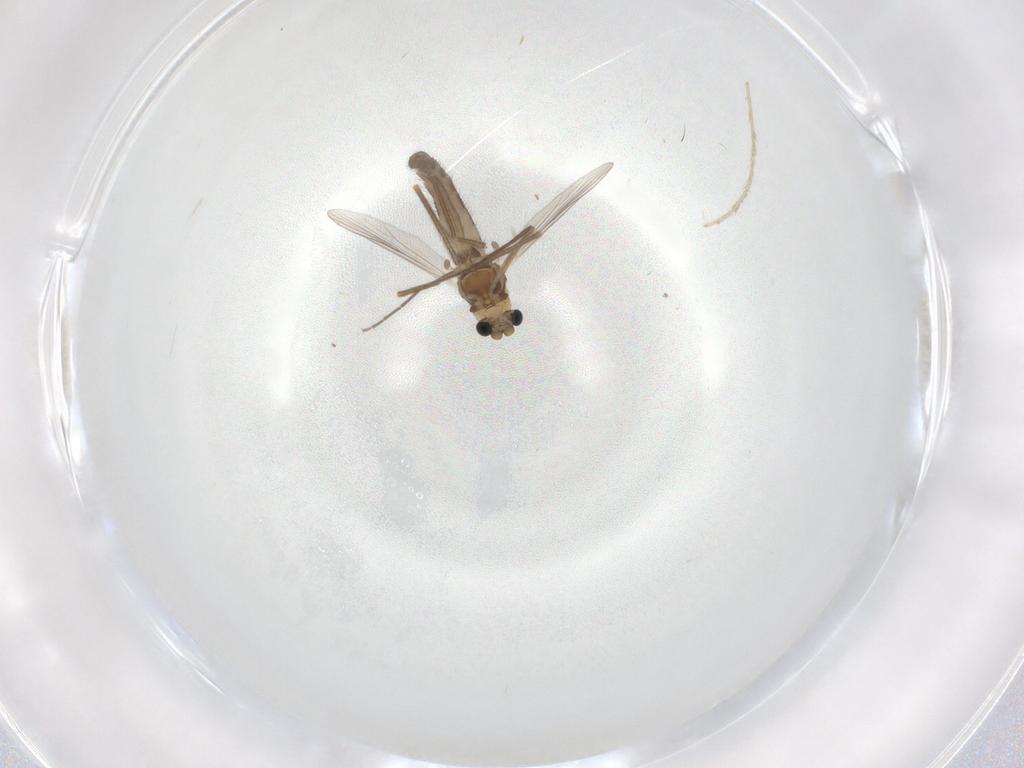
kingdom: Animalia
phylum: Arthropoda
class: Insecta
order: Diptera
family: Chironomidae
